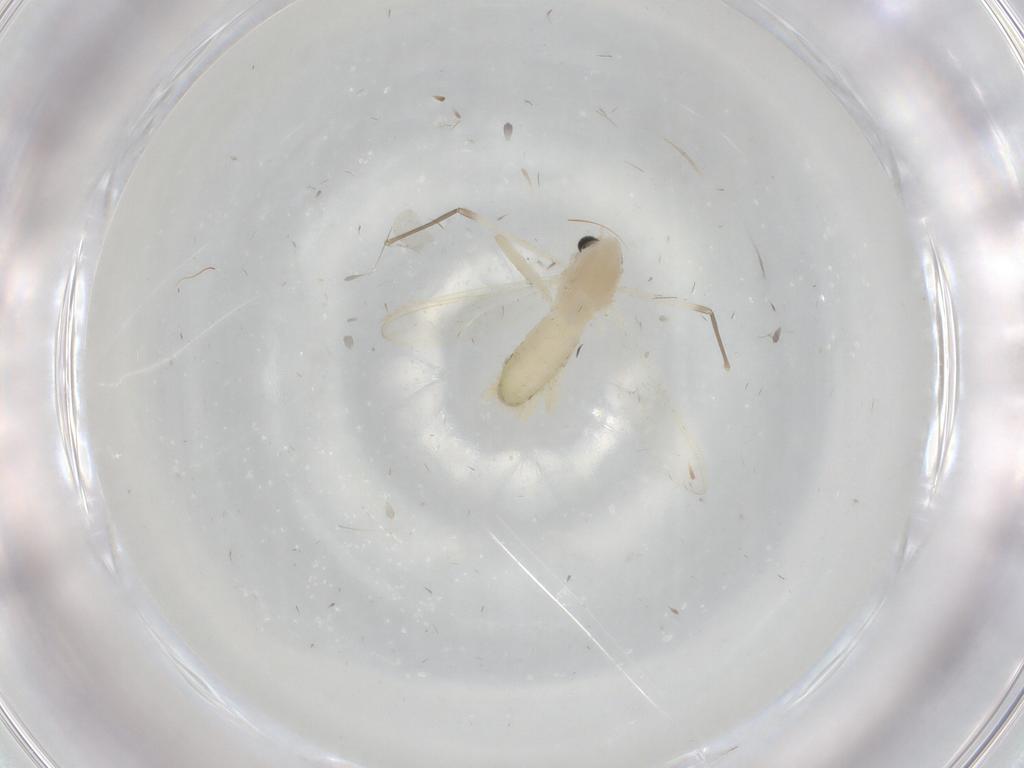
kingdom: Animalia
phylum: Arthropoda
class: Insecta
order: Diptera
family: Chironomidae
